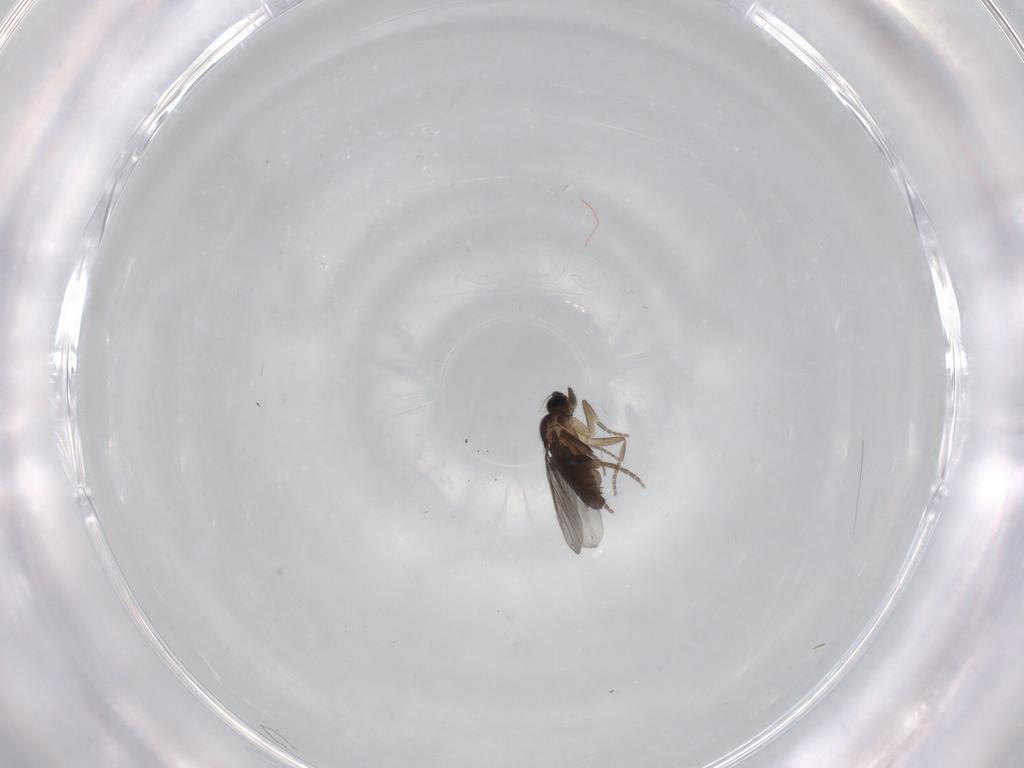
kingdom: Animalia
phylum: Arthropoda
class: Insecta
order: Diptera
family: Dolichopodidae
